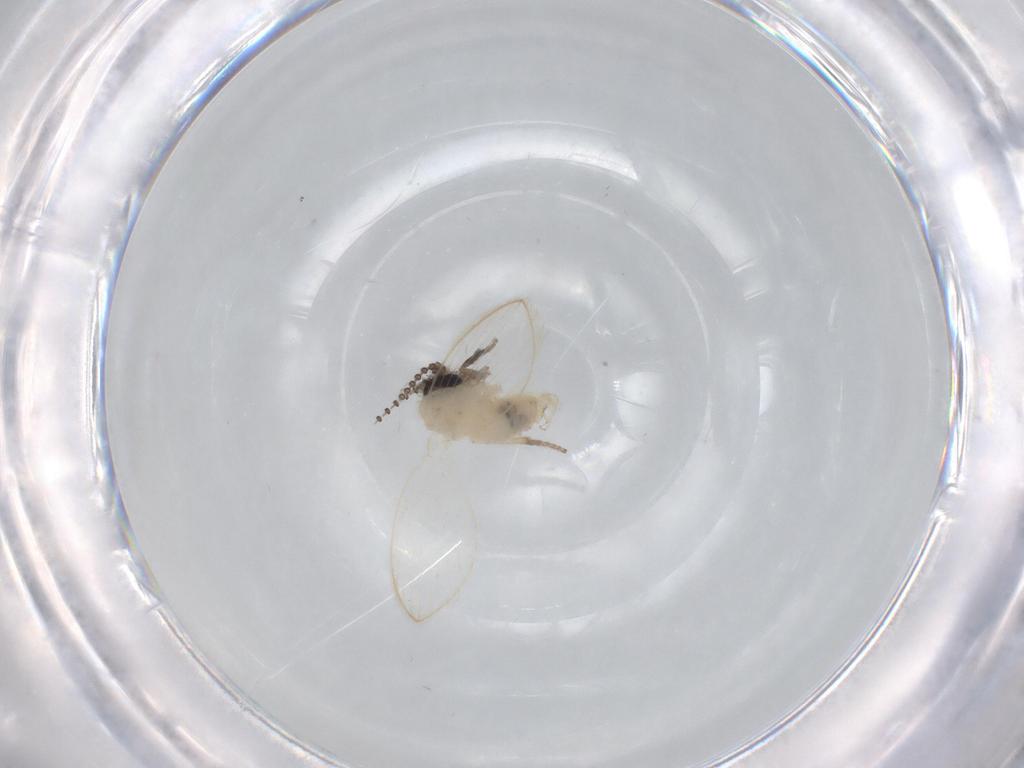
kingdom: Animalia
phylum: Arthropoda
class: Insecta
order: Diptera
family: Psychodidae
